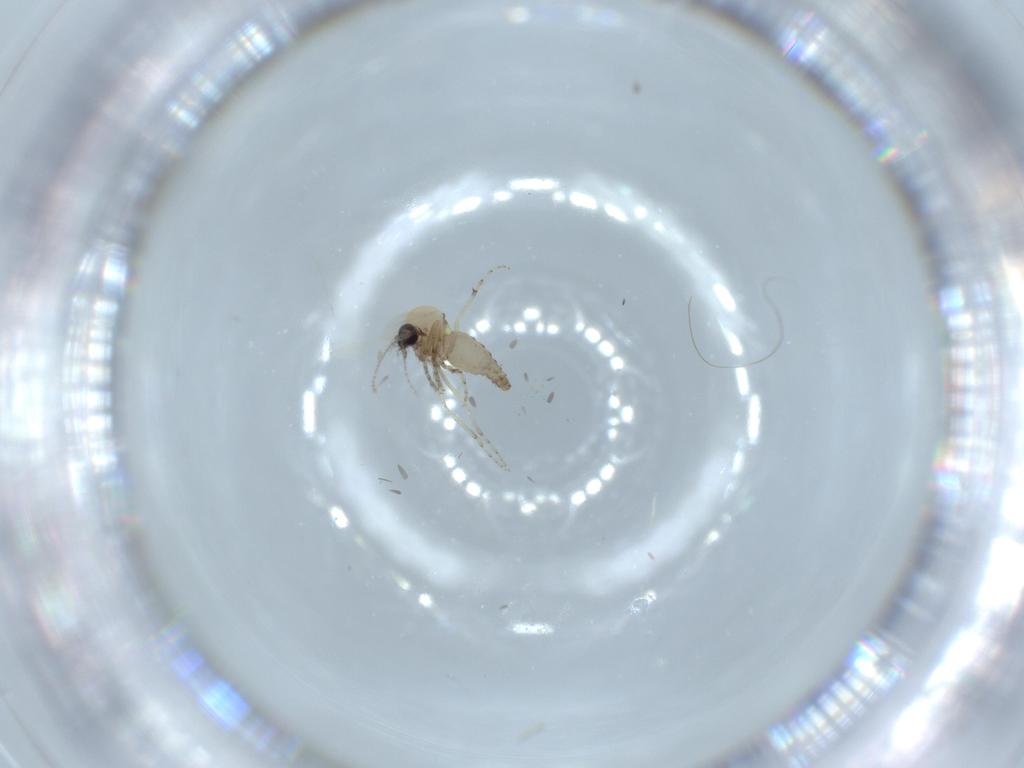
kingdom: Animalia
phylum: Arthropoda
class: Insecta
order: Diptera
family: Ceratopogonidae
